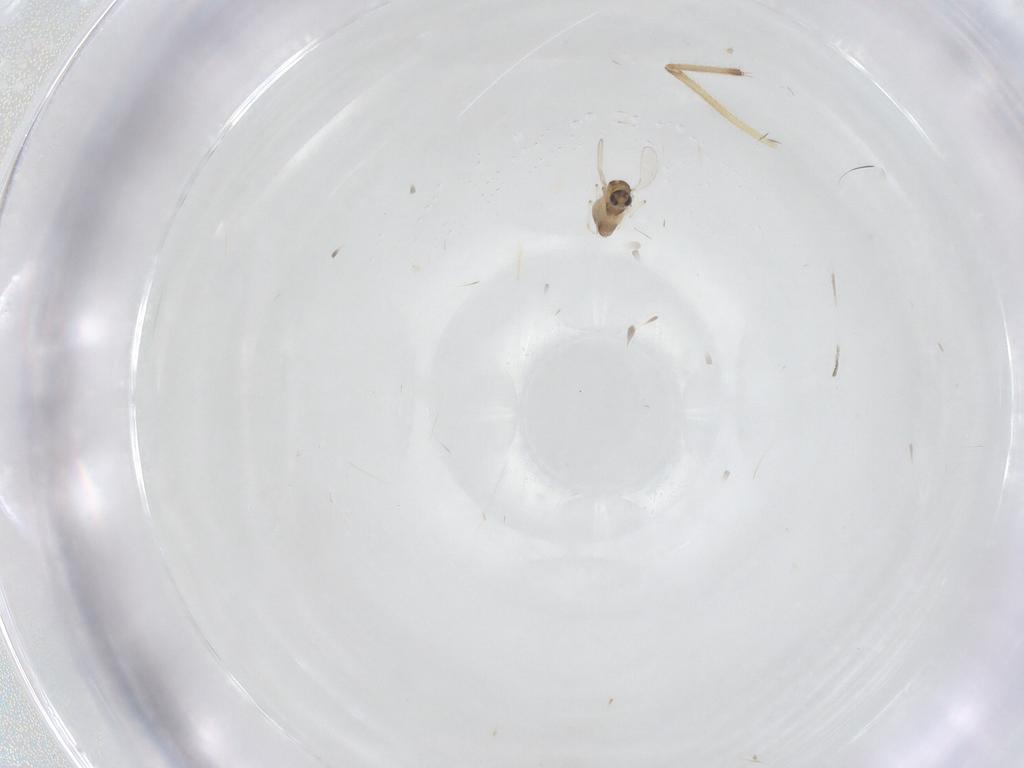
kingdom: Animalia
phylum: Arthropoda
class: Insecta
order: Diptera
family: Chironomidae
